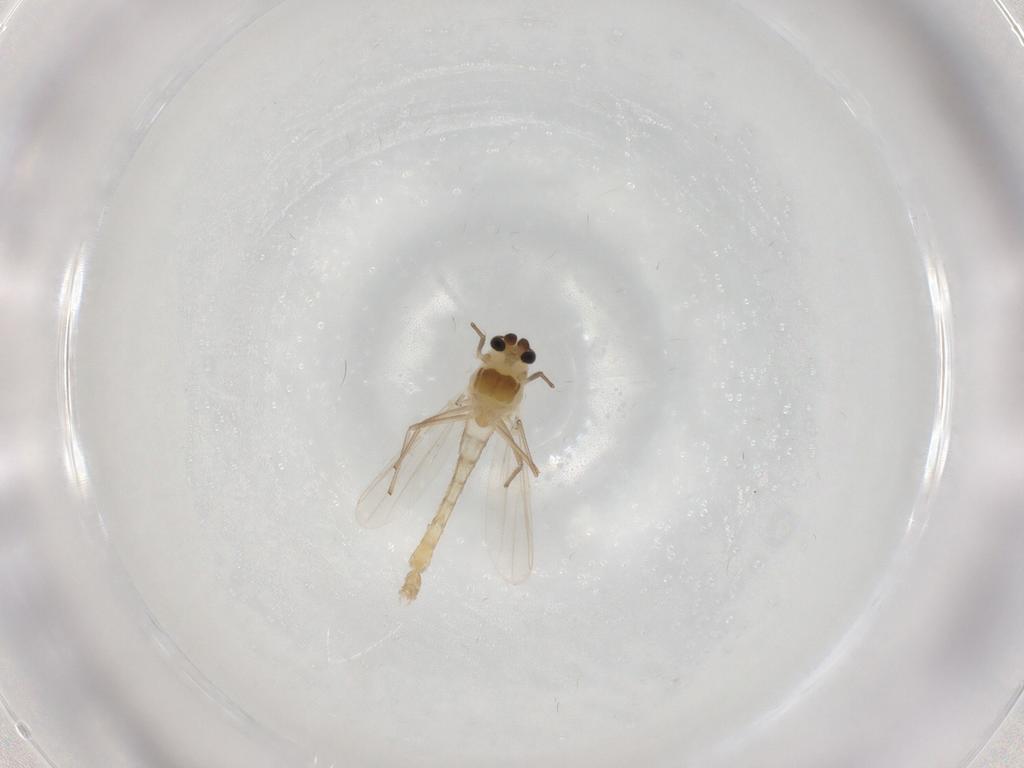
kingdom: Animalia
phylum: Arthropoda
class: Insecta
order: Diptera
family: Chironomidae
